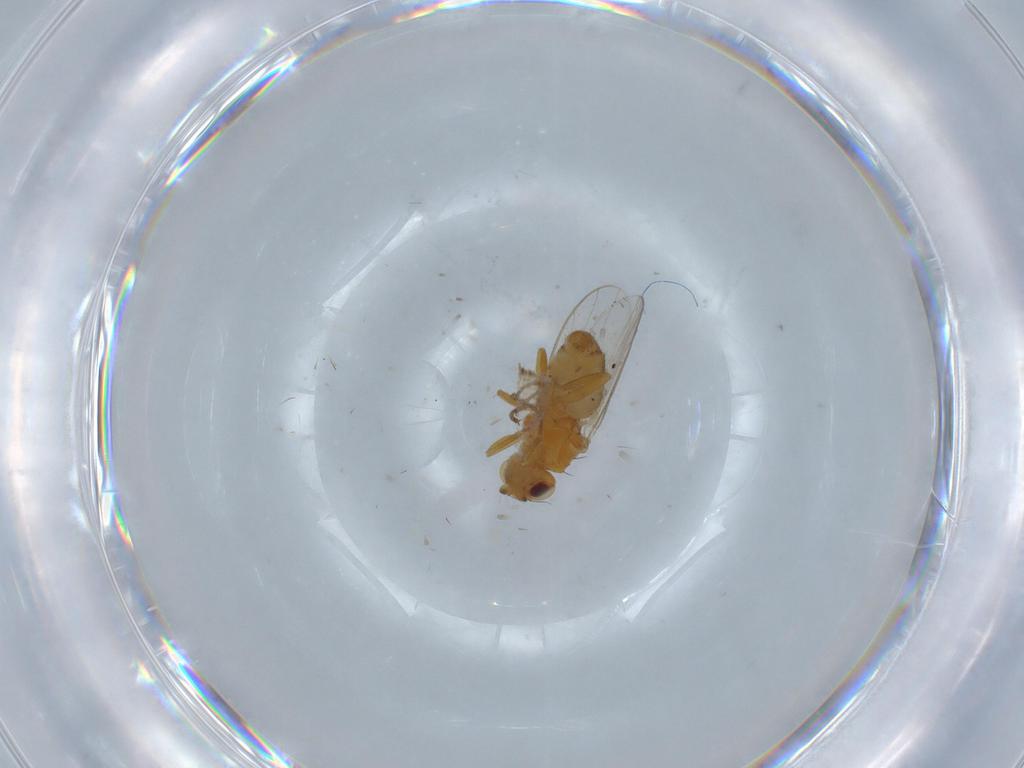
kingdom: Animalia
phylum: Arthropoda
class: Insecta
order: Diptera
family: Chloropidae
